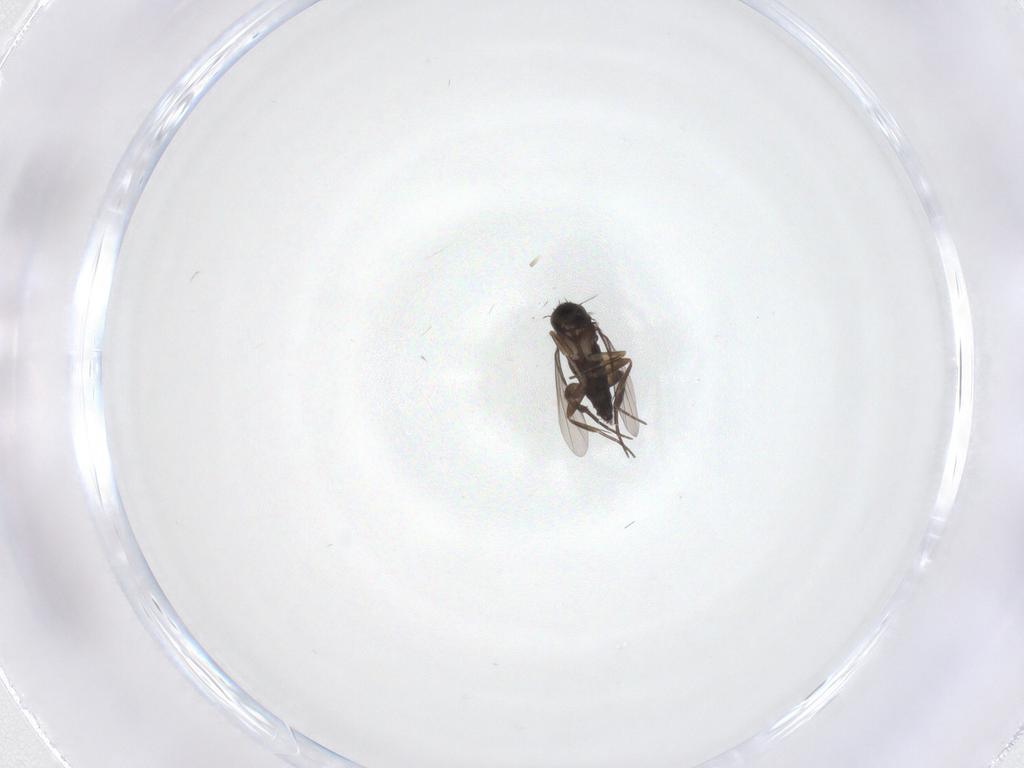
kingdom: Animalia
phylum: Arthropoda
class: Insecta
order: Diptera
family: Phoridae
